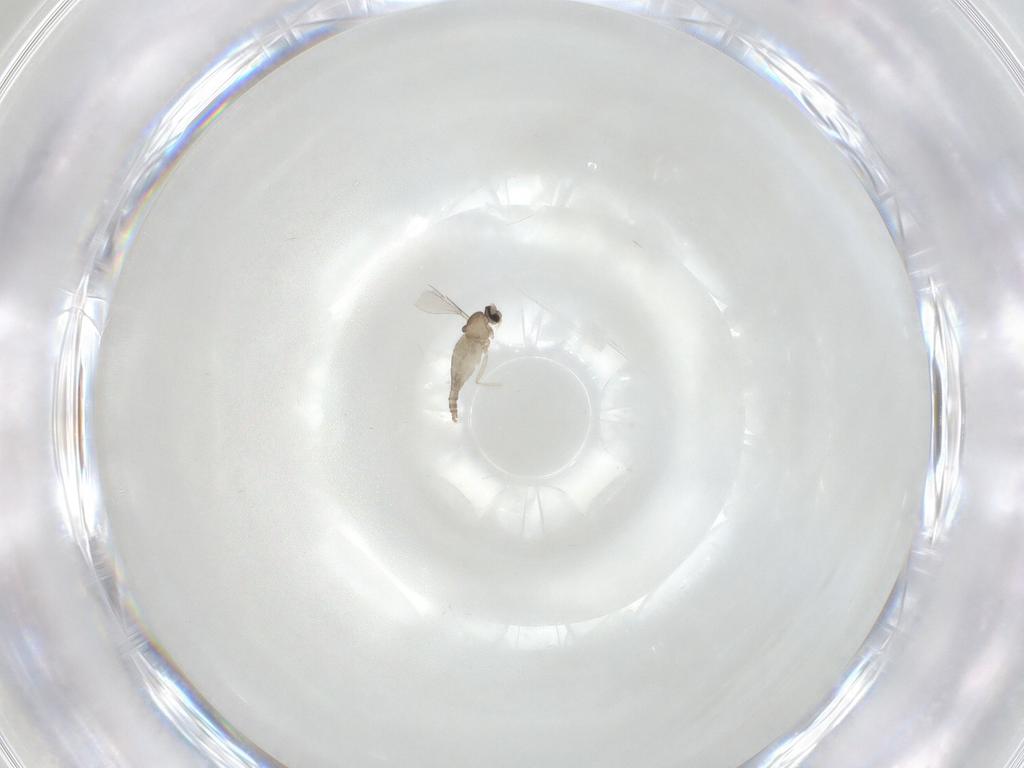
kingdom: Animalia
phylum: Arthropoda
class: Insecta
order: Diptera
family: Cecidomyiidae
